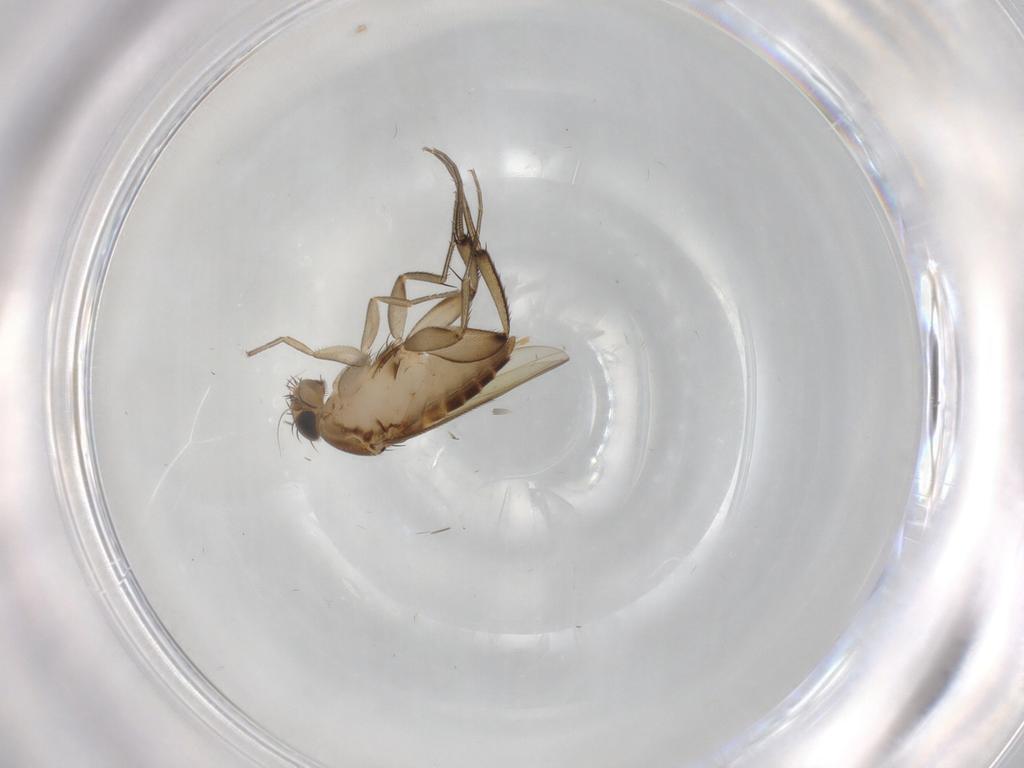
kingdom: Animalia
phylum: Arthropoda
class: Insecta
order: Diptera
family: Phoridae
